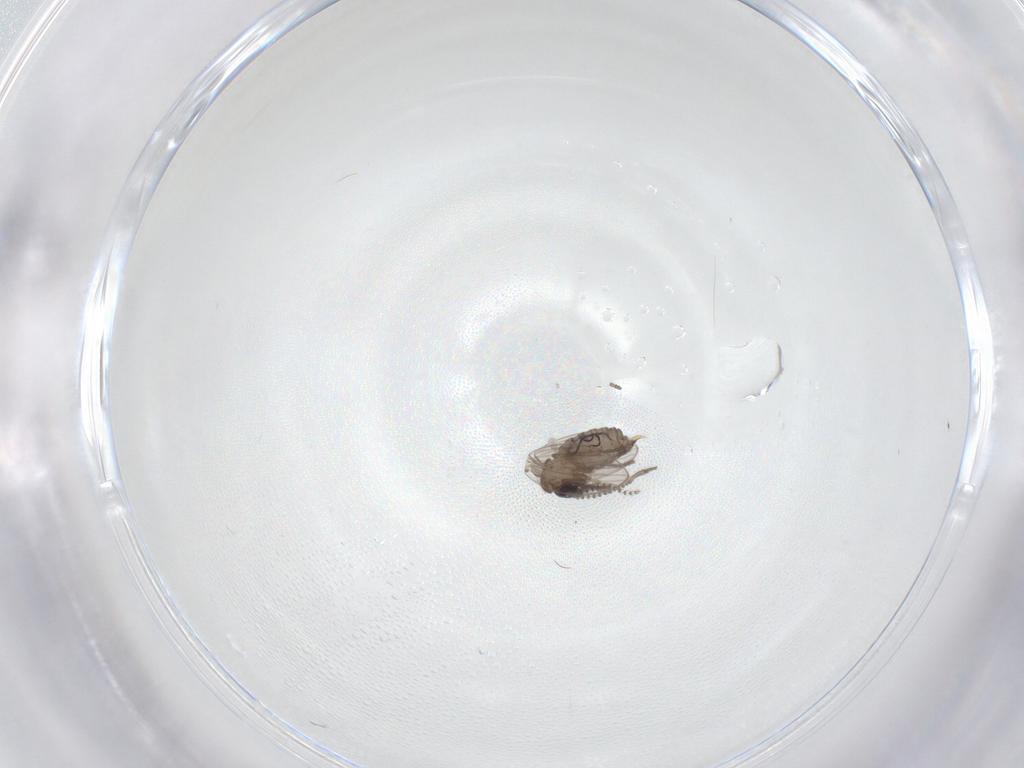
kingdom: Animalia
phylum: Arthropoda
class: Insecta
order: Diptera
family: Psychodidae
